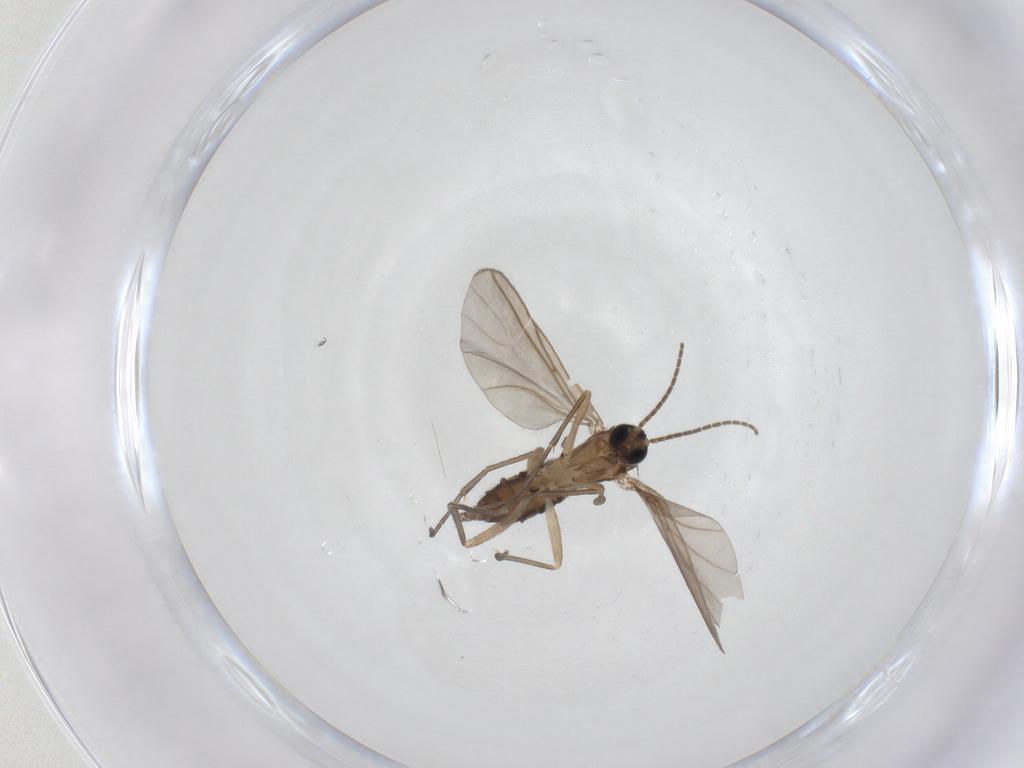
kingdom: Animalia
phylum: Arthropoda
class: Insecta
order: Diptera
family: Sciaridae
